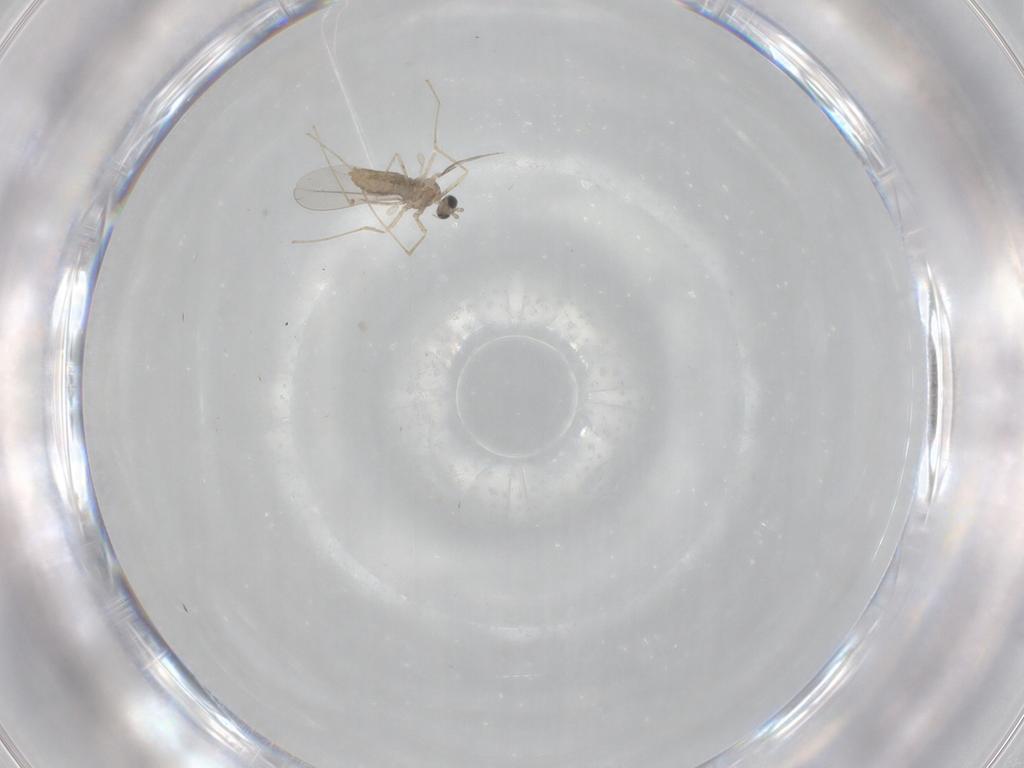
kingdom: Animalia
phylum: Arthropoda
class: Insecta
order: Diptera
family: Cecidomyiidae
